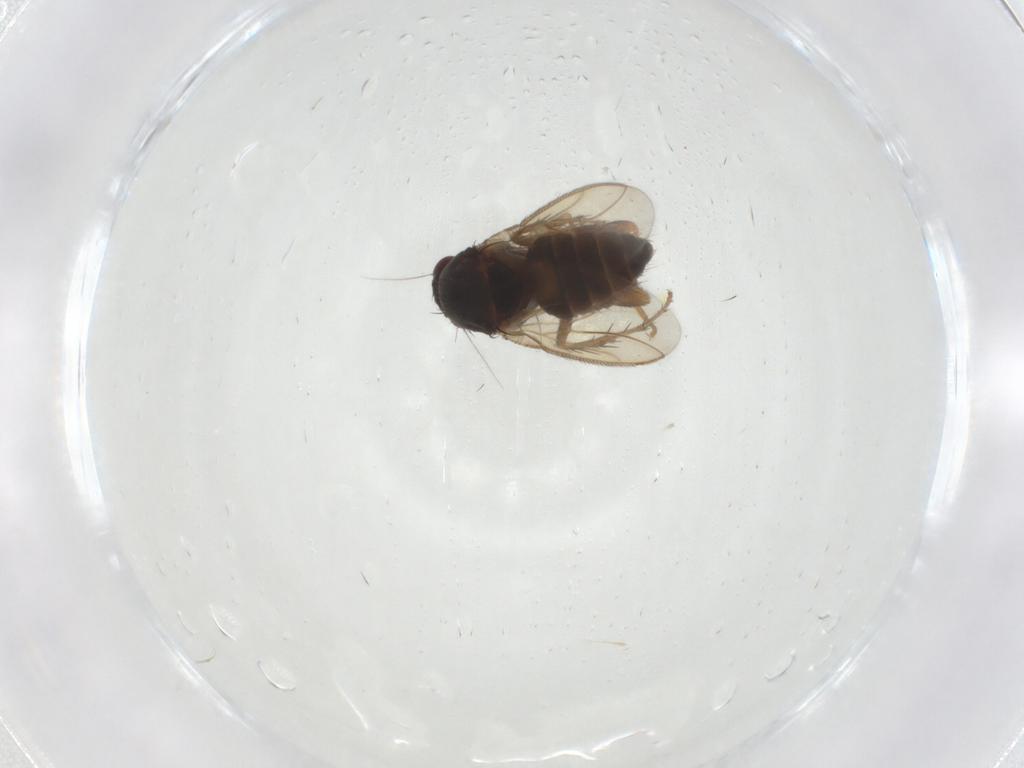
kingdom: Animalia
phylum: Arthropoda
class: Insecta
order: Diptera
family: Sphaeroceridae
